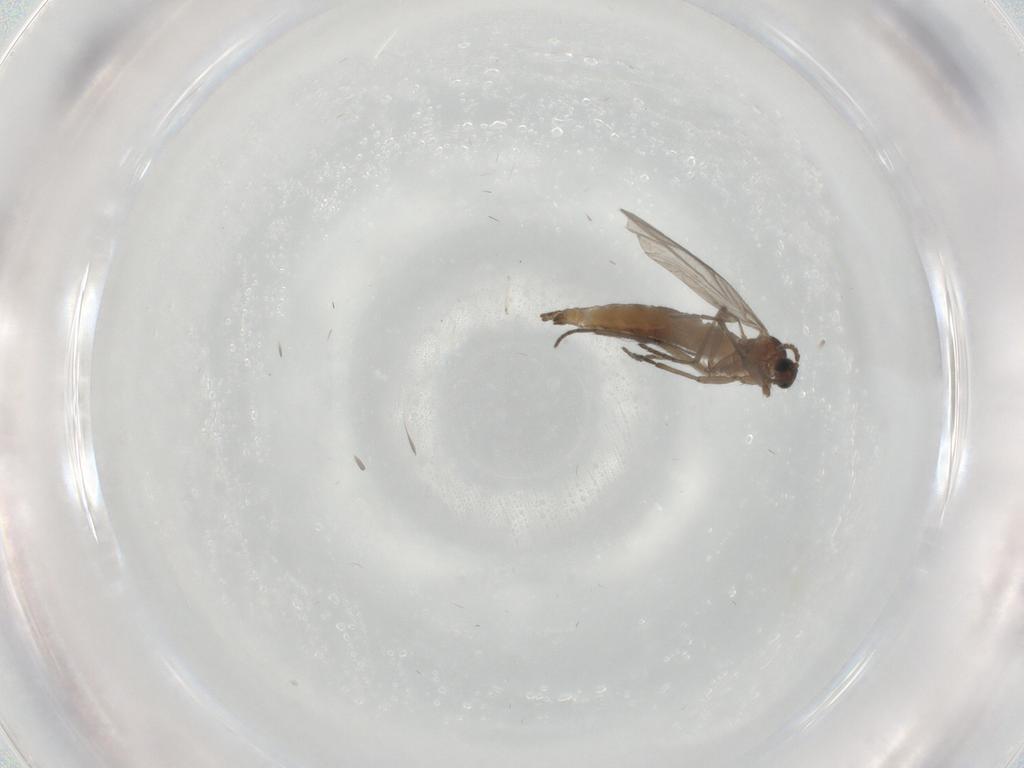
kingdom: Animalia
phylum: Arthropoda
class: Insecta
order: Diptera
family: Sciaridae
